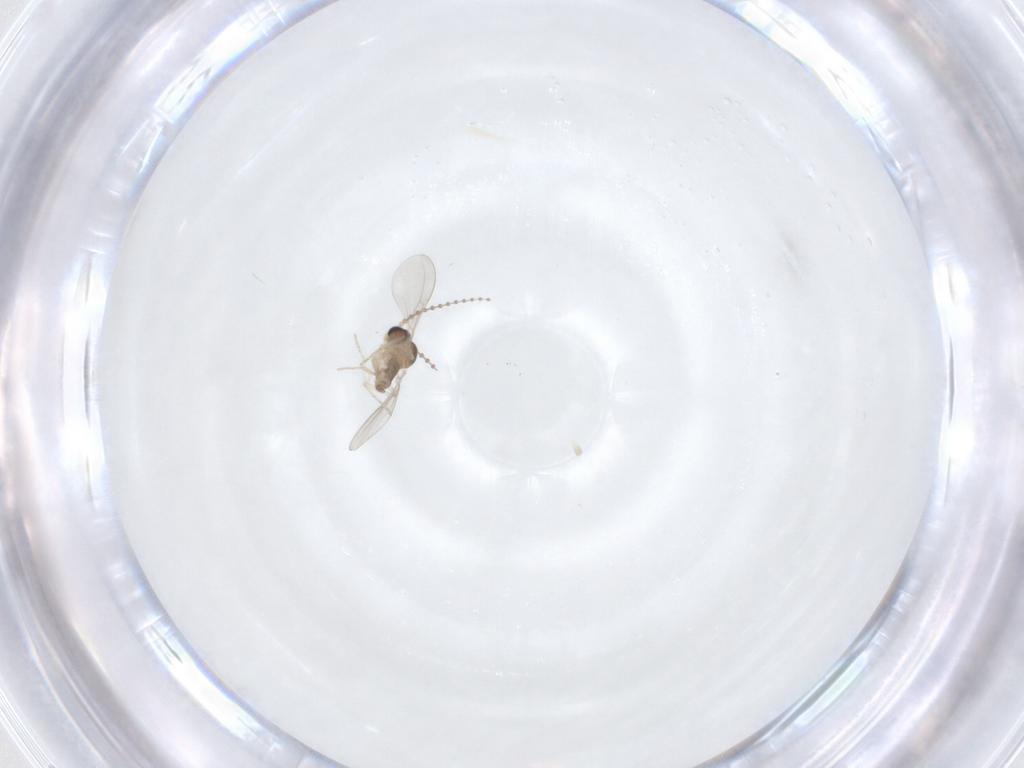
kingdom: Animalia
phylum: Arthropoda
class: Insecta
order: Diptera
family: Cecidomyiidae
